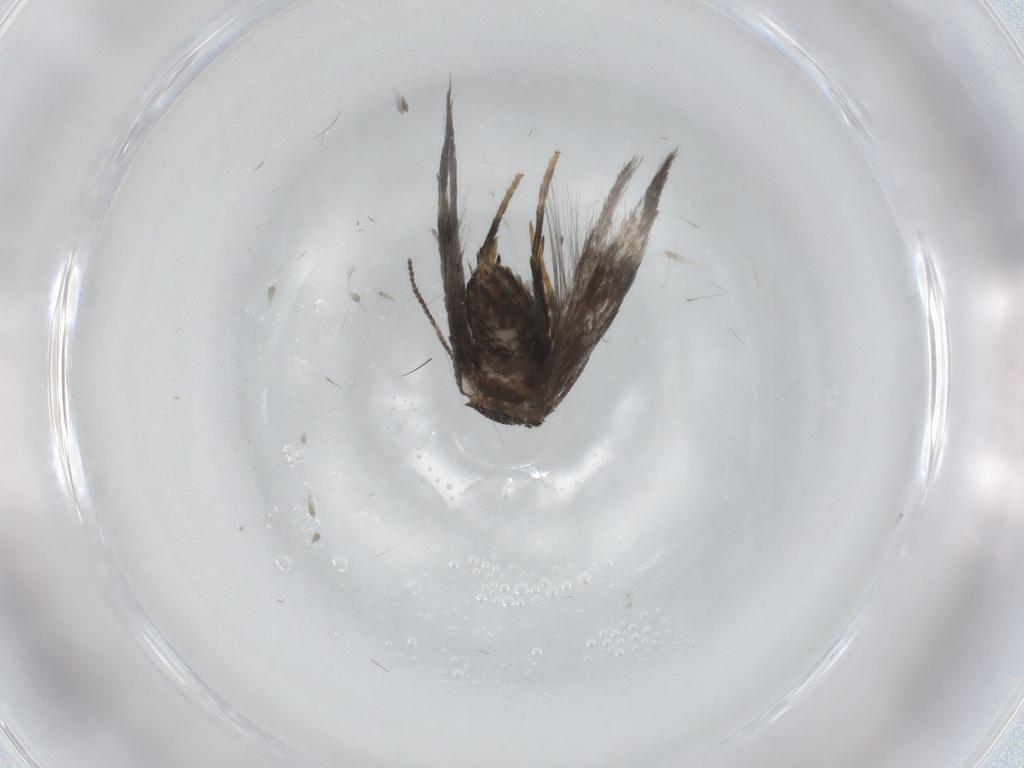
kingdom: Animalia
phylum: Arthropoda
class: Insecta
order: Lepidoptera
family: Nepticulidae
